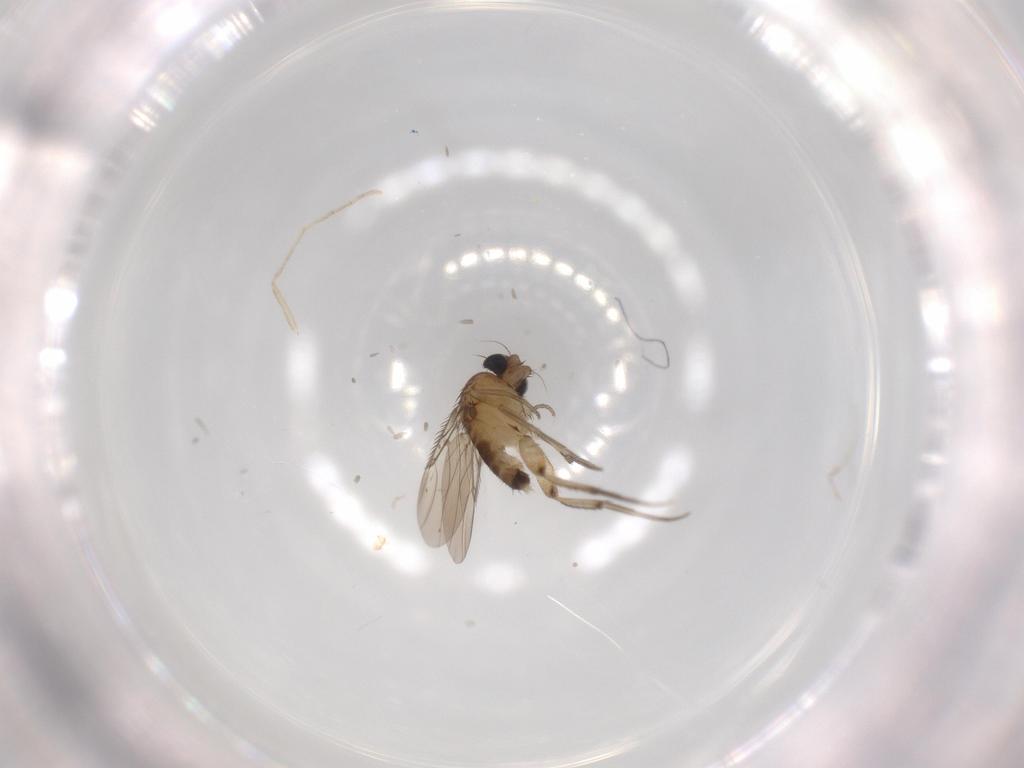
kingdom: Animalia
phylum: Arthropoda
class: Insecta
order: Diptera
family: Phoridae
